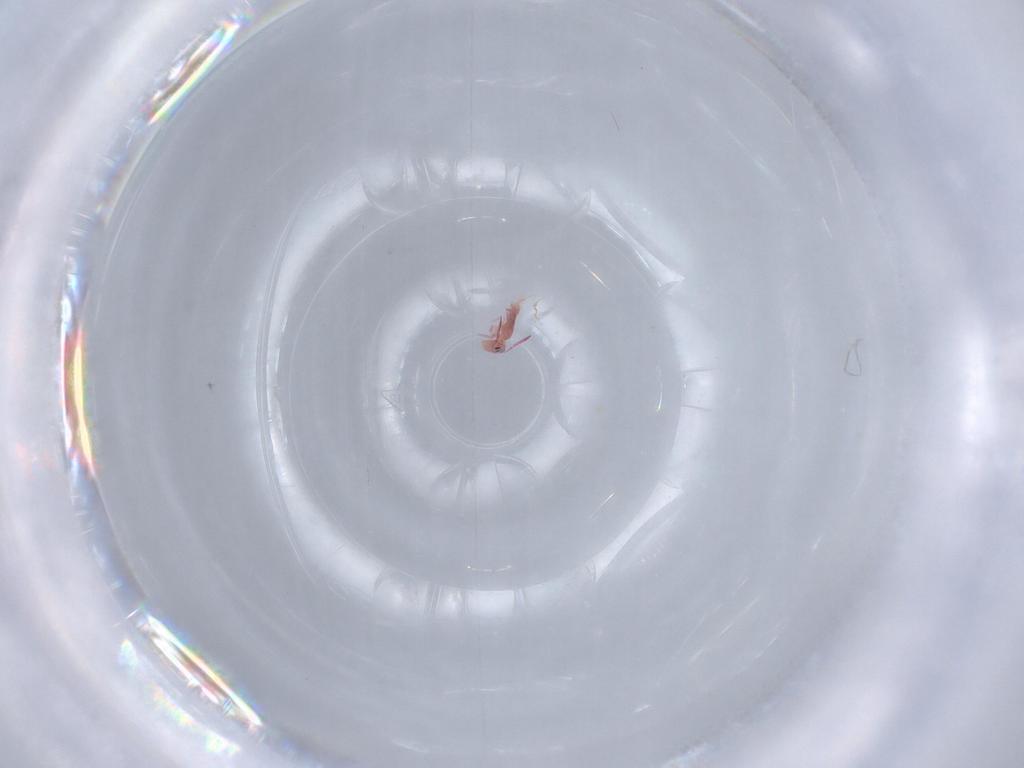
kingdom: Animalia
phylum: Arthropoda
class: Collembola
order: Symphypleona
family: Bourletiellidae
